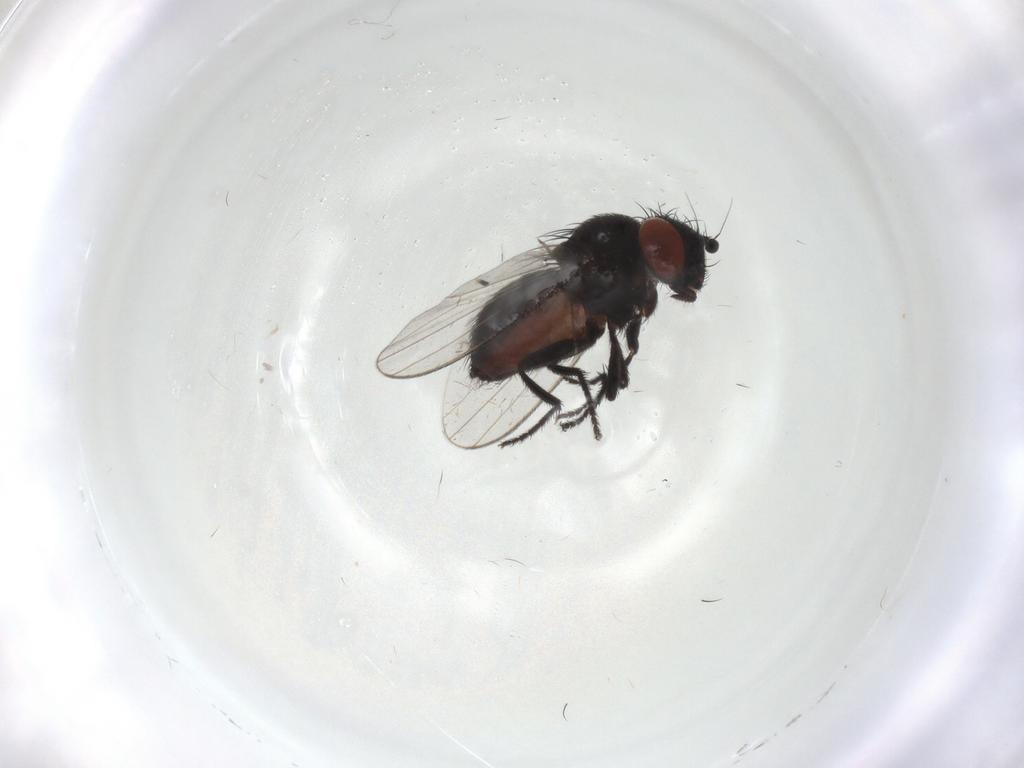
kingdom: Animalia
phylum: Arthropoda
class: Insecta
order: Diptera
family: Milichiidae
